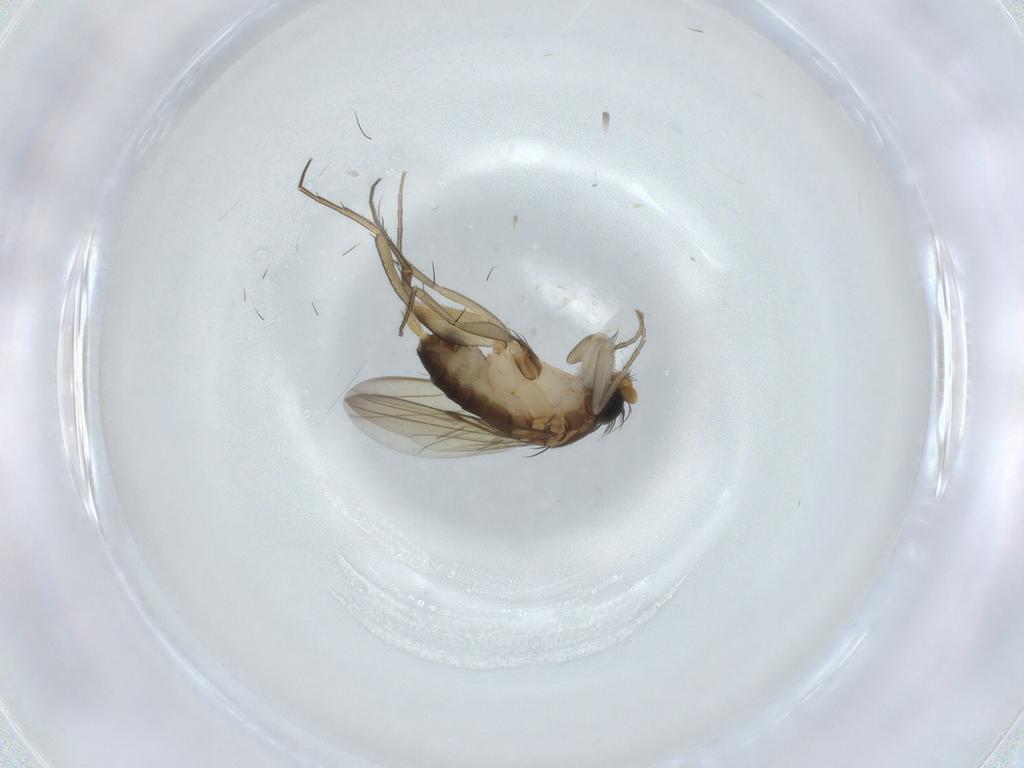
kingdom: Animalia
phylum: Arthropoda
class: Insecta
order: Diptera
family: Phoridae
